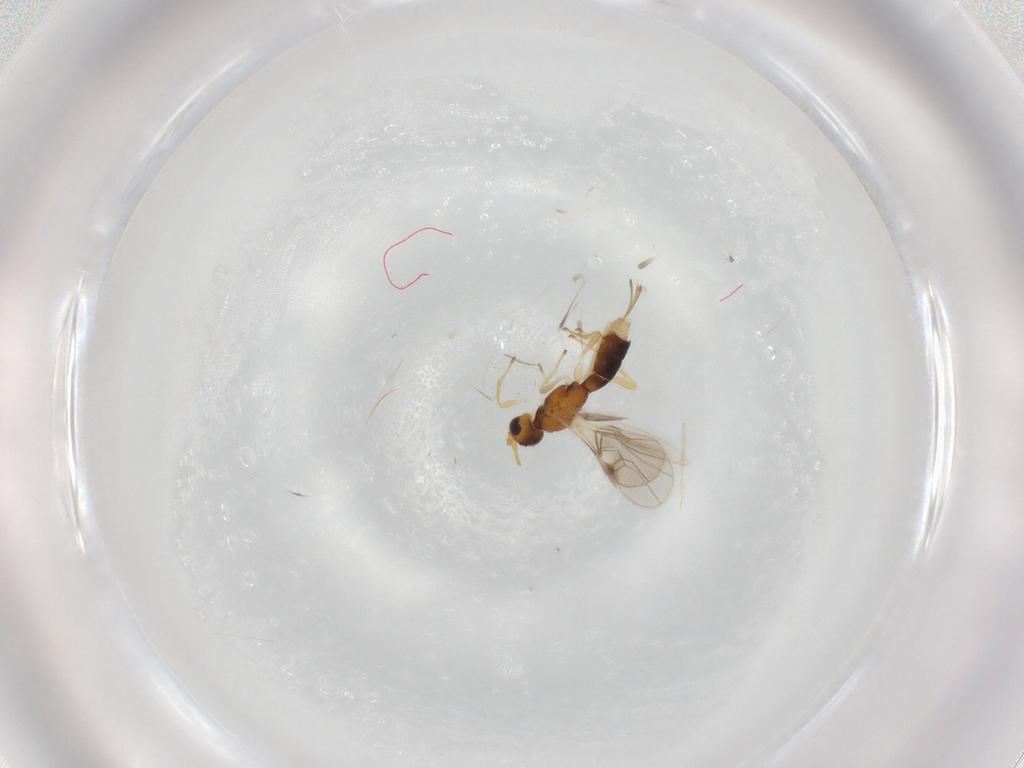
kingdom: Animalia
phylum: Arthropoda
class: Insecta
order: Hymenoptera
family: Braconidae
